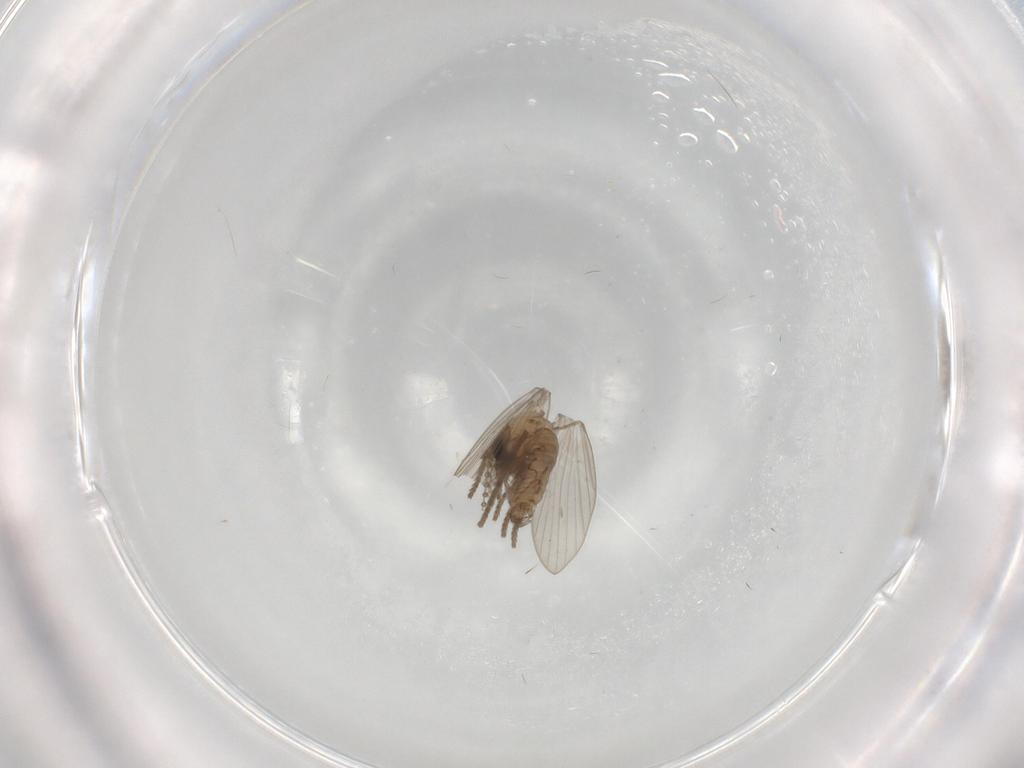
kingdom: Animalia
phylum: Arthropoda
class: Insecta
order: Diptera
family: Psychodidae
